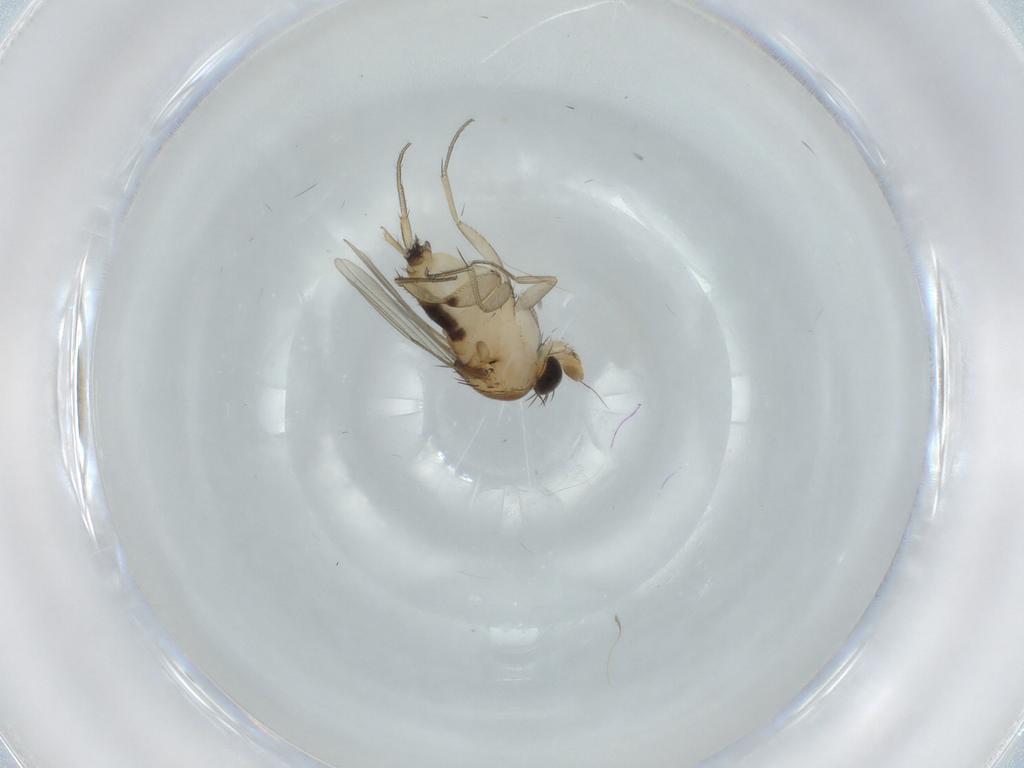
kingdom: Animalia
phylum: Arthropoda
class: Insecta
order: Diptera
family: Phoridae
